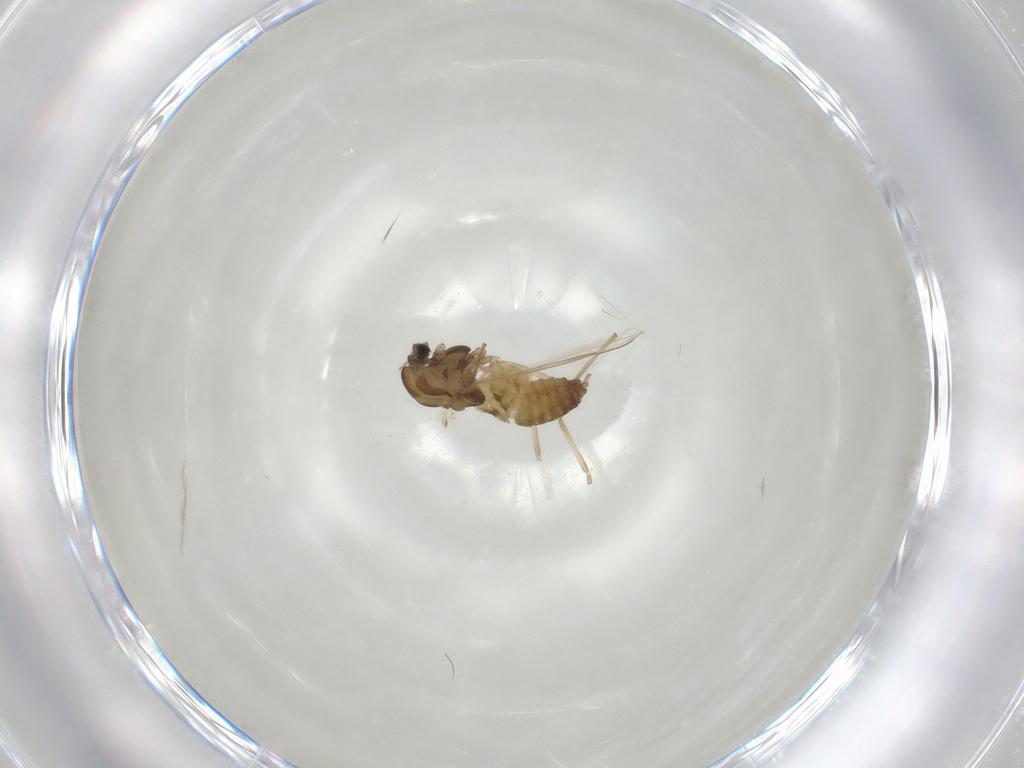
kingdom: Animalia
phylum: Arthropoda
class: Insecta
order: Diptera
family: Chironomidae
